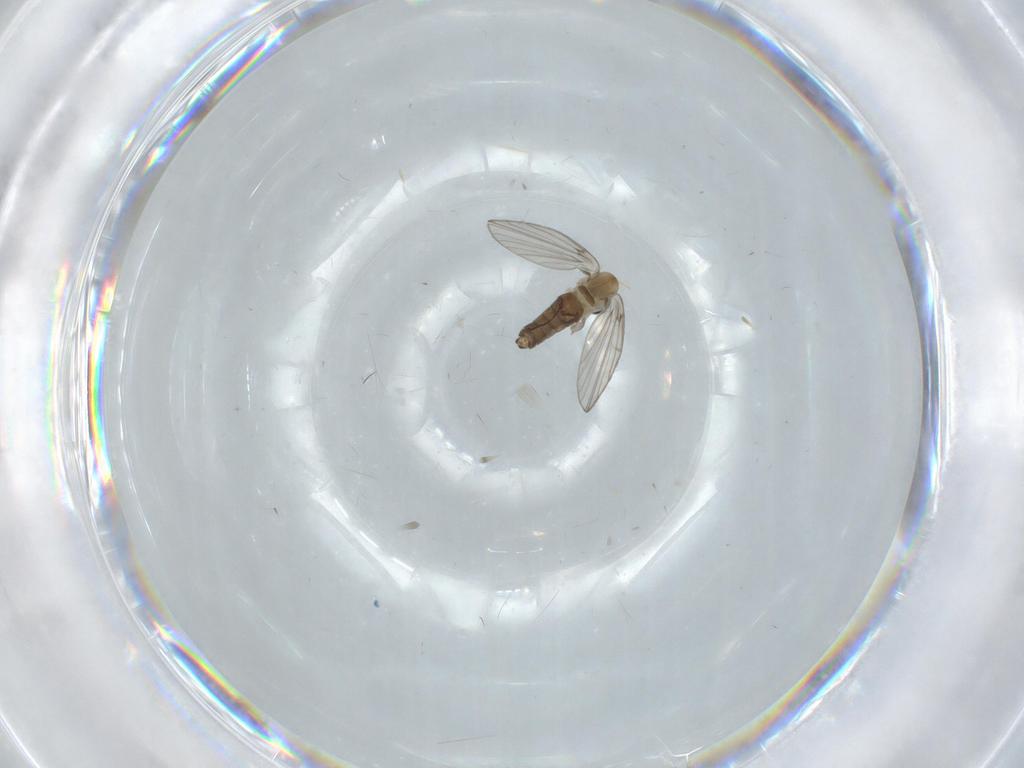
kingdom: Animalia
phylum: Arthropoda
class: Insecta
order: Diptera
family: Psychodidae
